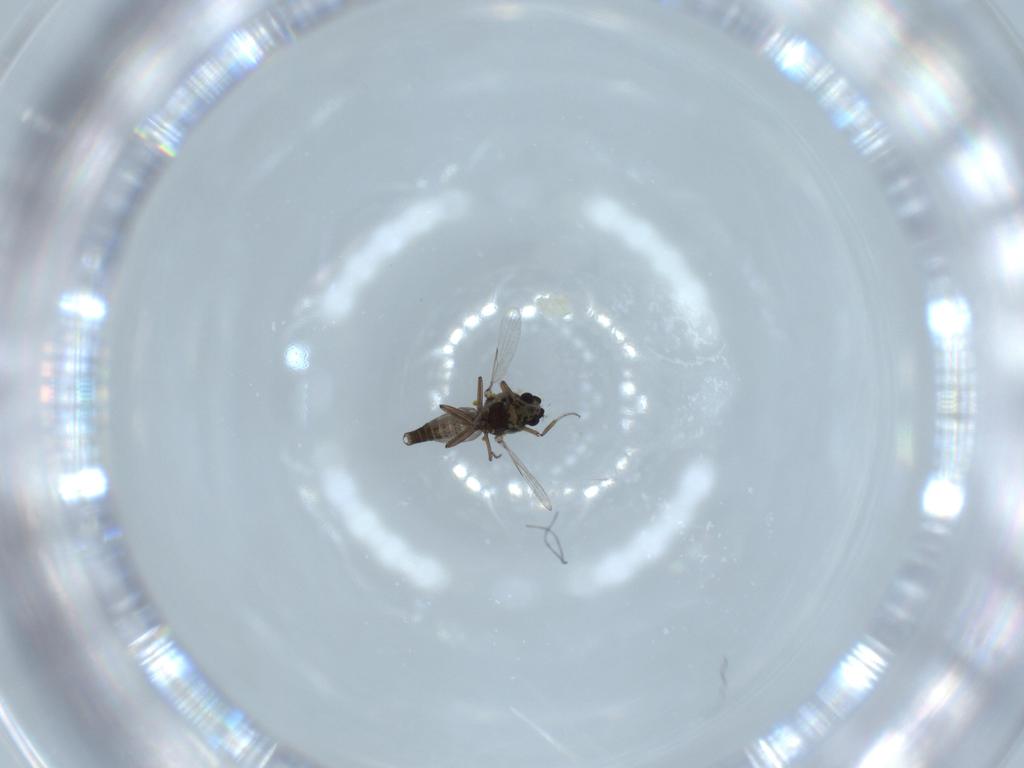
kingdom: Animalia
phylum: Arthropoda
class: Insecta
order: Diptera
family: Ceratopogonidae
